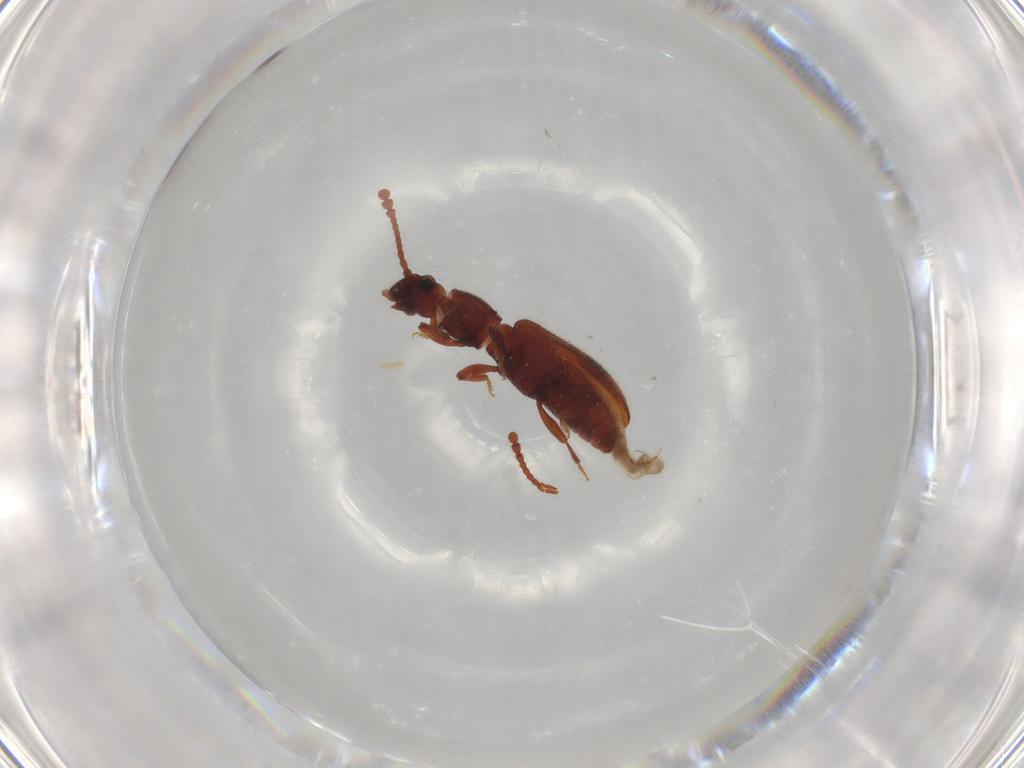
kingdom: Animalia
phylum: Arthropoda
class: Insecta
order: Coleoptera
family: Silvanidae
